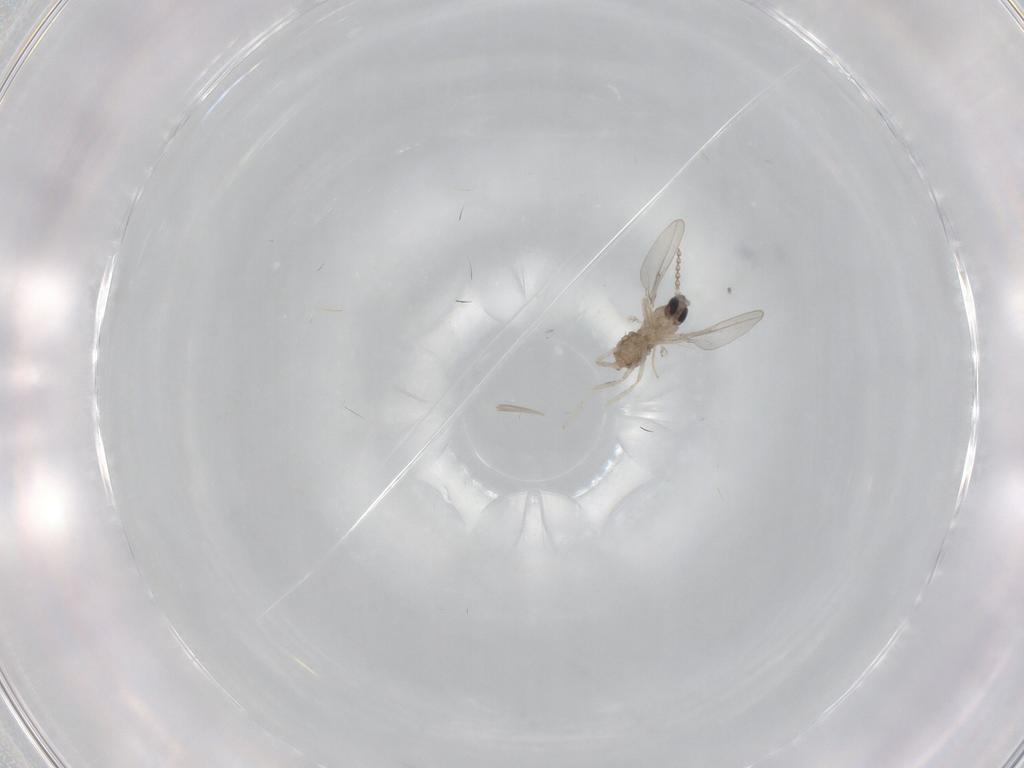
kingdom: Animalia
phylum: Arthropoda
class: Insecta
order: Diptera
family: Cecidomyiidae
